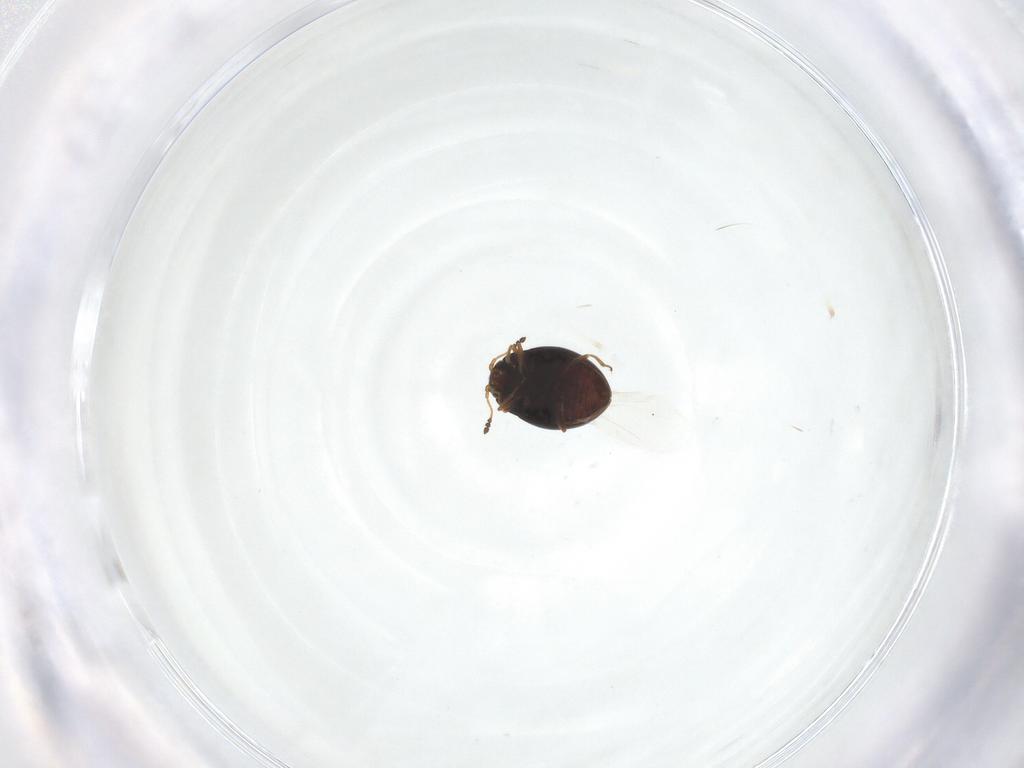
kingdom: Animalia
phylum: Arthropoda
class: Insecta
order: Coleoptera
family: Cryptophagidae
